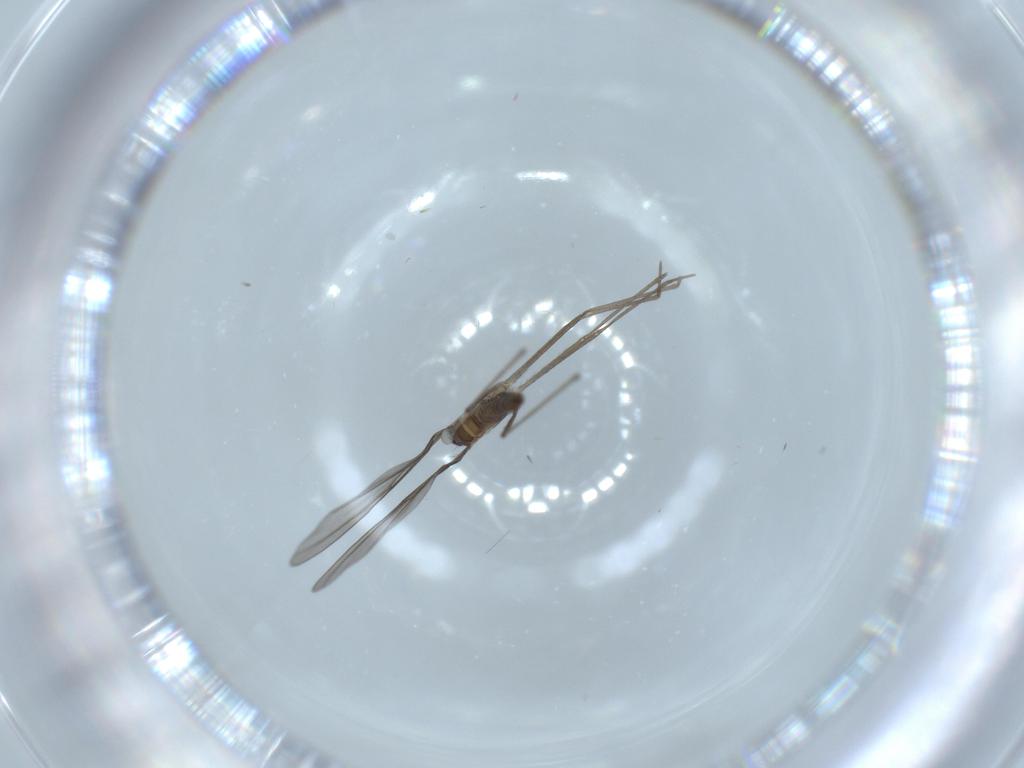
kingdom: Animalia
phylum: Arthropoda
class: Insecta
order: Diptera
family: Cecidomyiidae
